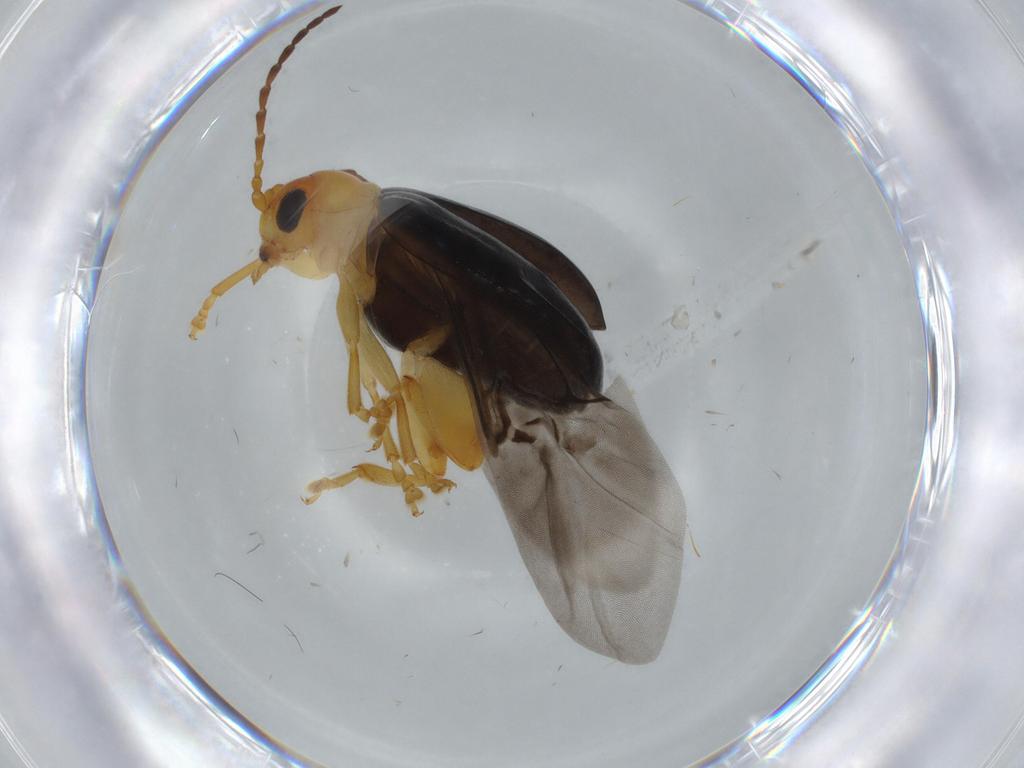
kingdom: Animalia
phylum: Arthropoda
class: Insecta
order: Coleoptera
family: Chrysomelidae
